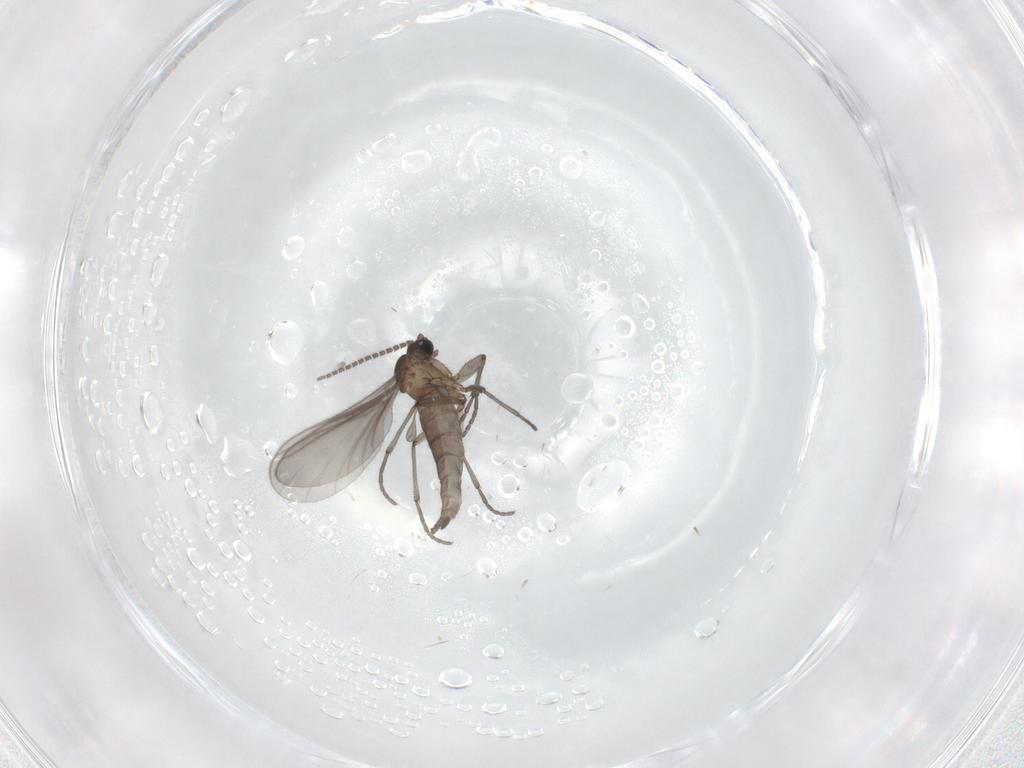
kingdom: Animalia
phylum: Arthropoda
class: Insecta
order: Diptera
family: Sciaridae
